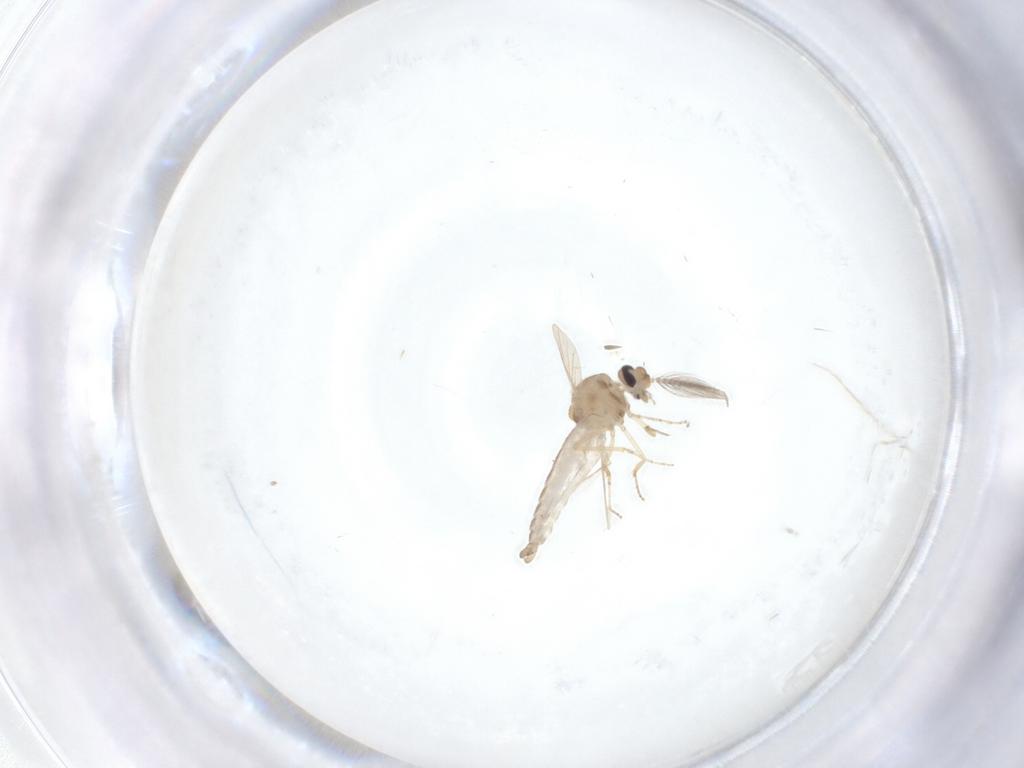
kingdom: Animalia
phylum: Arthropoda
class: Insecta
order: Diptera
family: Ceratopogonidae
